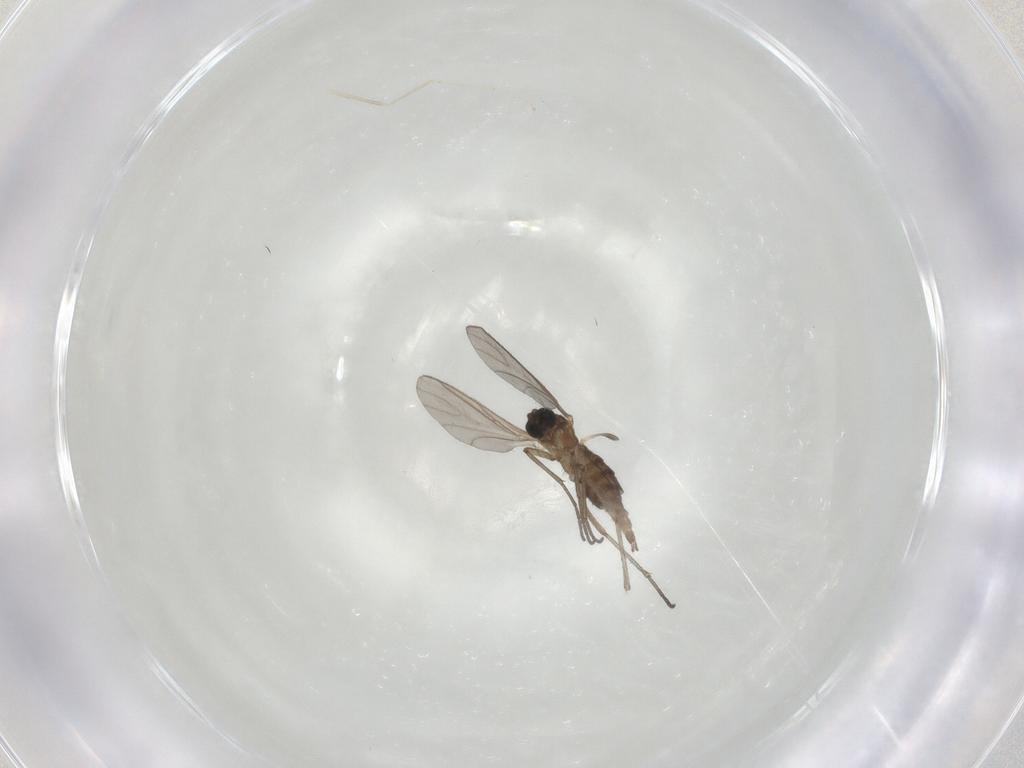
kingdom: Animalia
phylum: Arthropoda
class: Insecta
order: Diptera
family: Sciaridae
